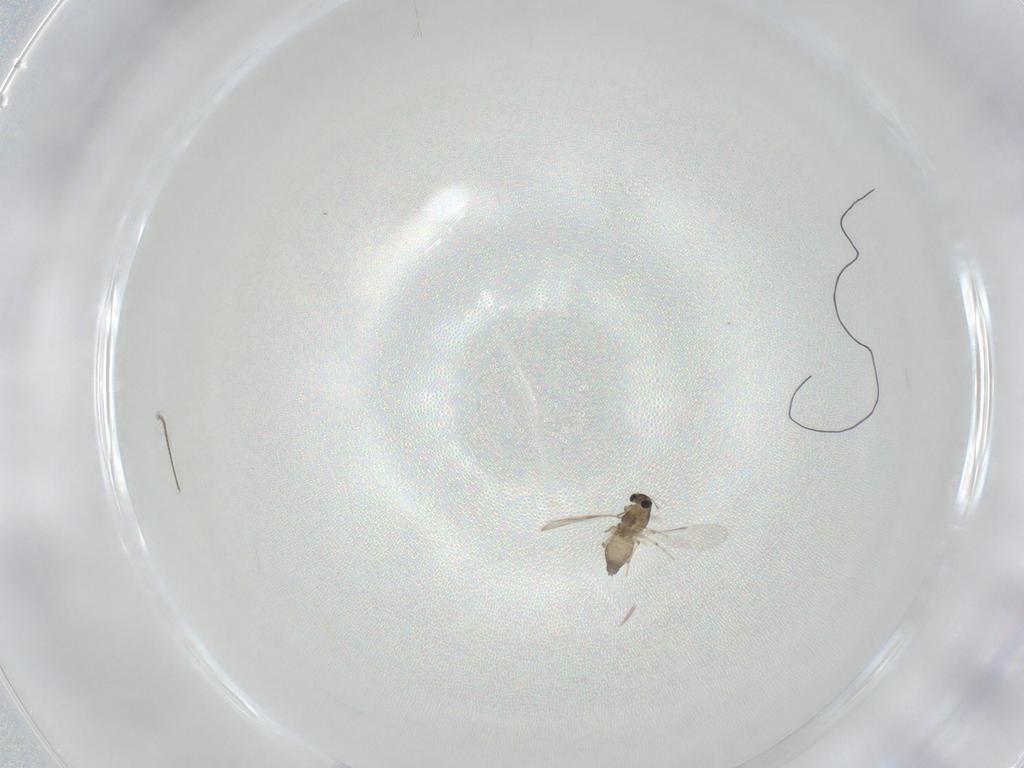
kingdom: Animalia
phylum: Arthropoda
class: Insecta
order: Diptera
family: Chironomidae
